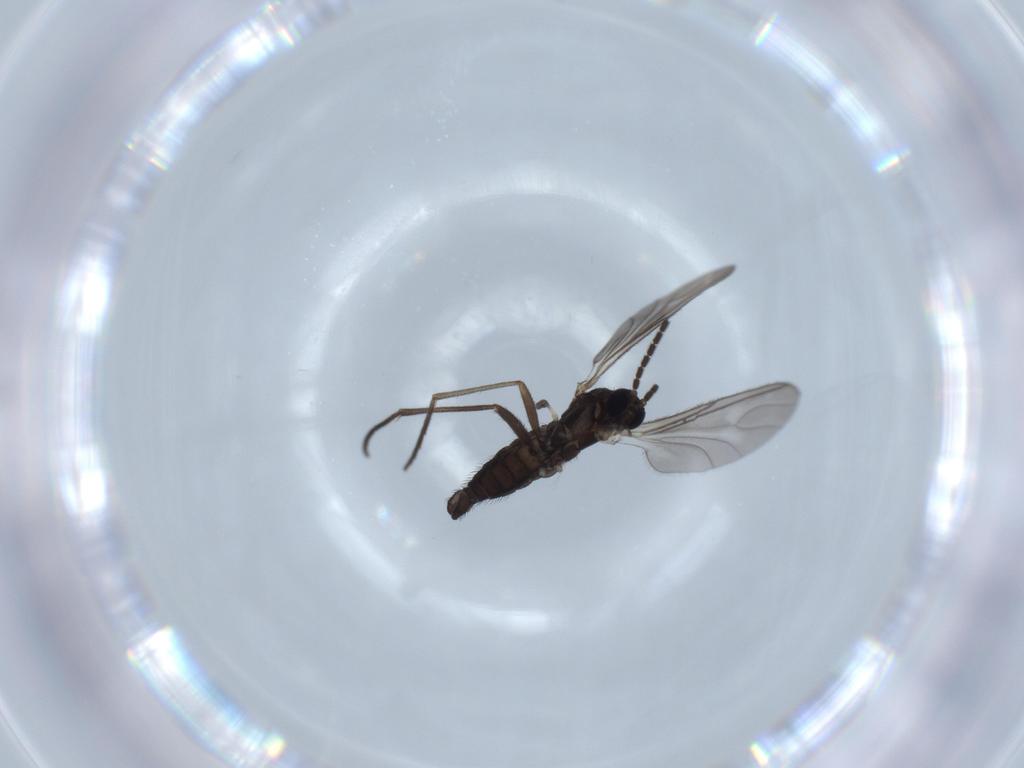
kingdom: Animalia
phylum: Arthropoda
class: Insecta
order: Diptera
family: Sciaridae
